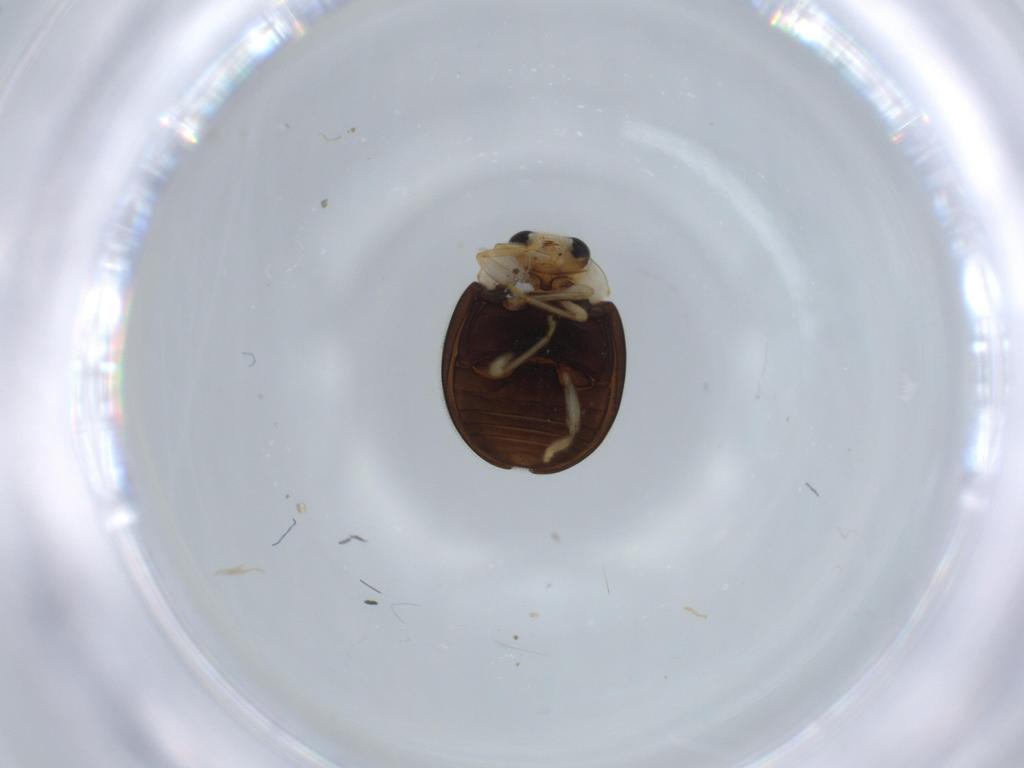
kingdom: Animalia
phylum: Arthropoda
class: Insecta
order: Coleoptera
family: Coccinellidae
